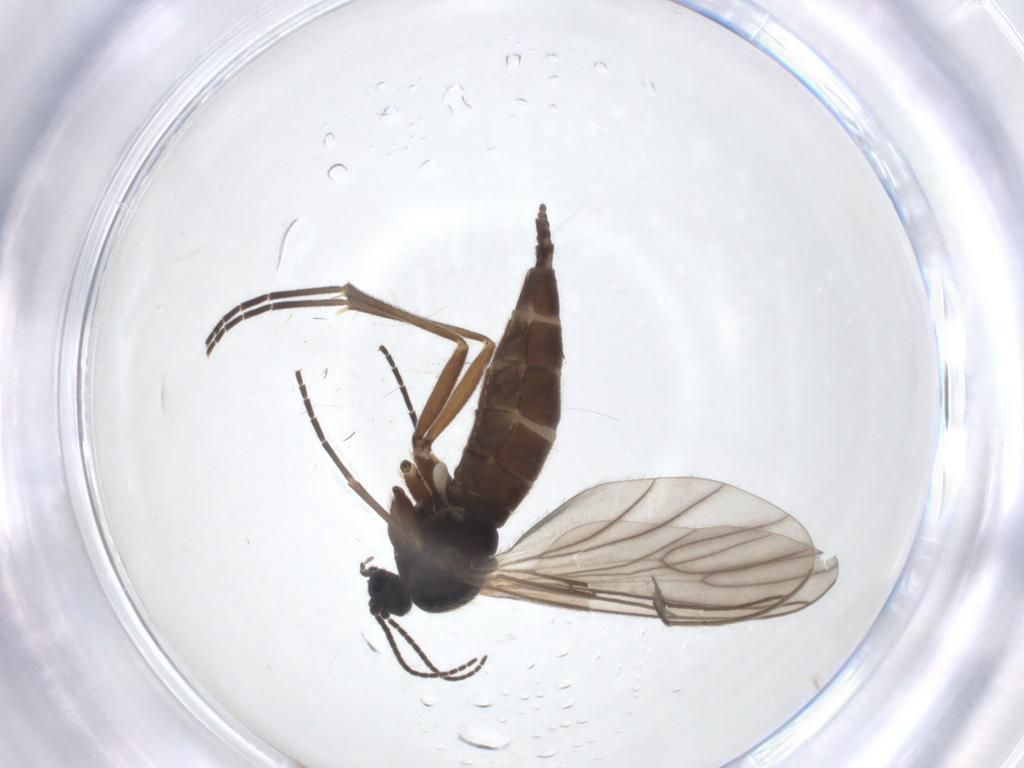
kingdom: Animalia
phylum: Arthropoda
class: Insecta
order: Diptera
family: Sciaridae
